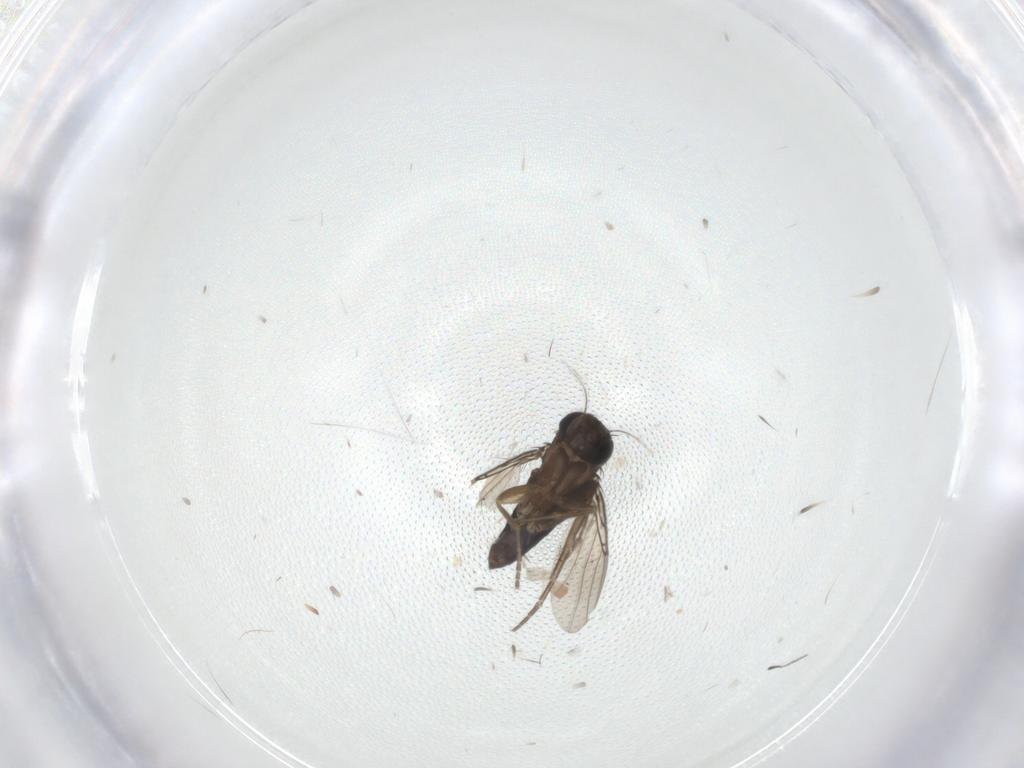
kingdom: Animalia
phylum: Arthropoda
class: Insecta
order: Diptera
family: Phoridae
